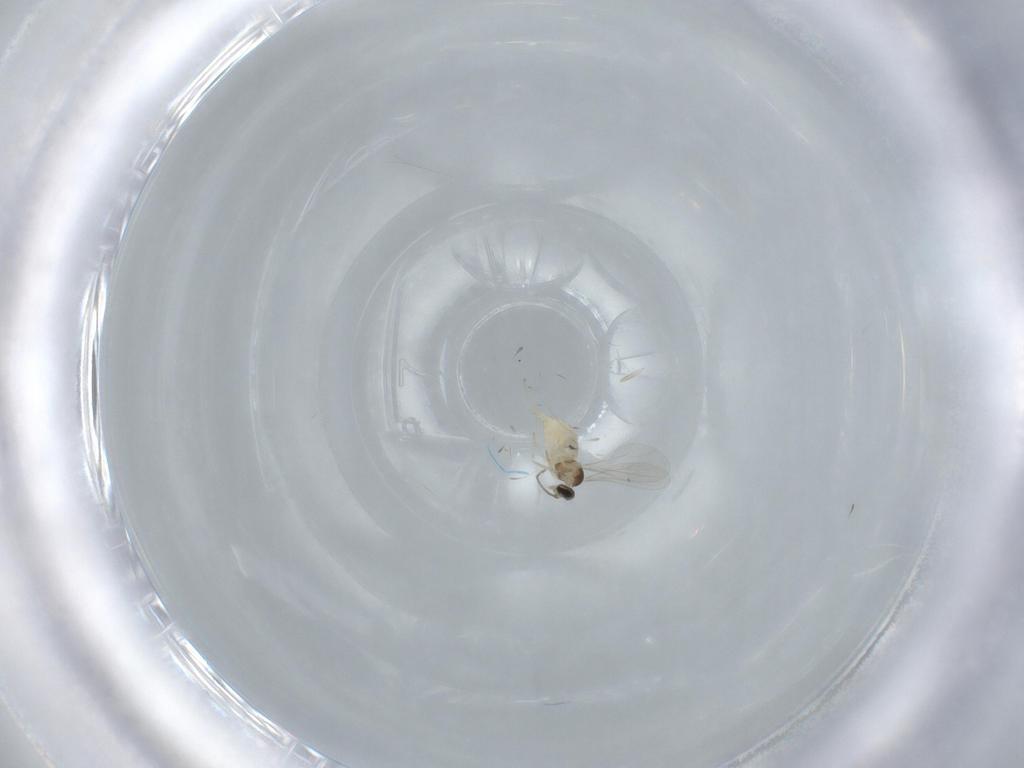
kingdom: Animalia
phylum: Arthropoda
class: Insecta
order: Diptera
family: Cecidomyiidae
